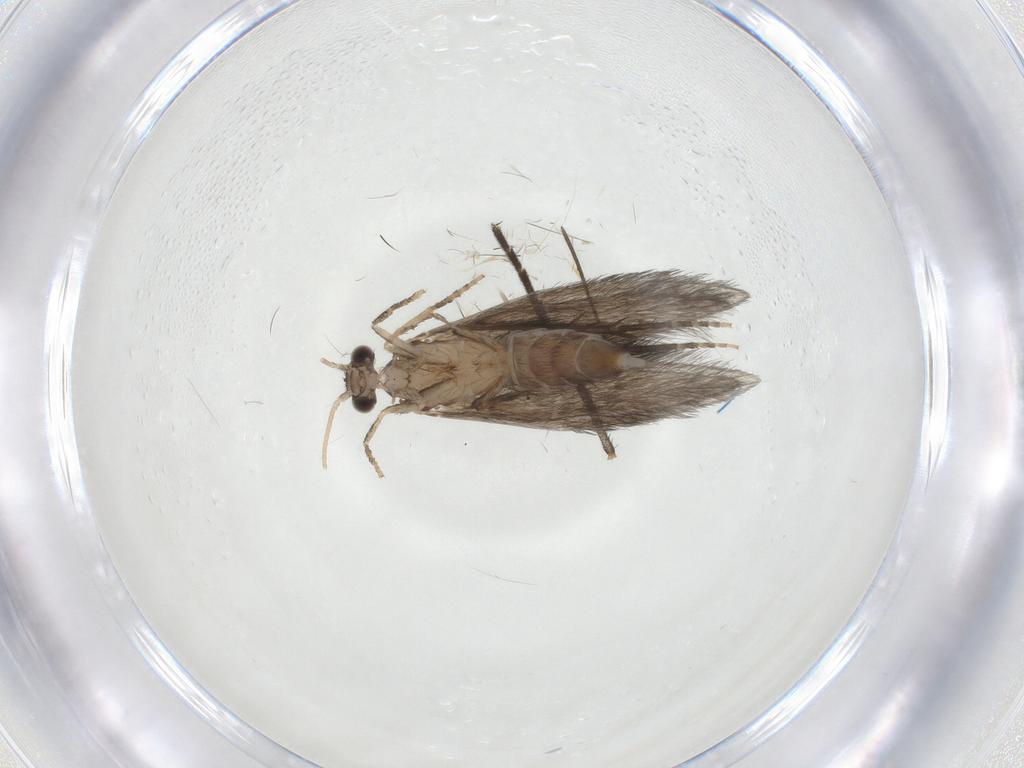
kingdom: Animalia
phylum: Arthropoda
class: Insecta
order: Trichoptera
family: Hydroptilidae
